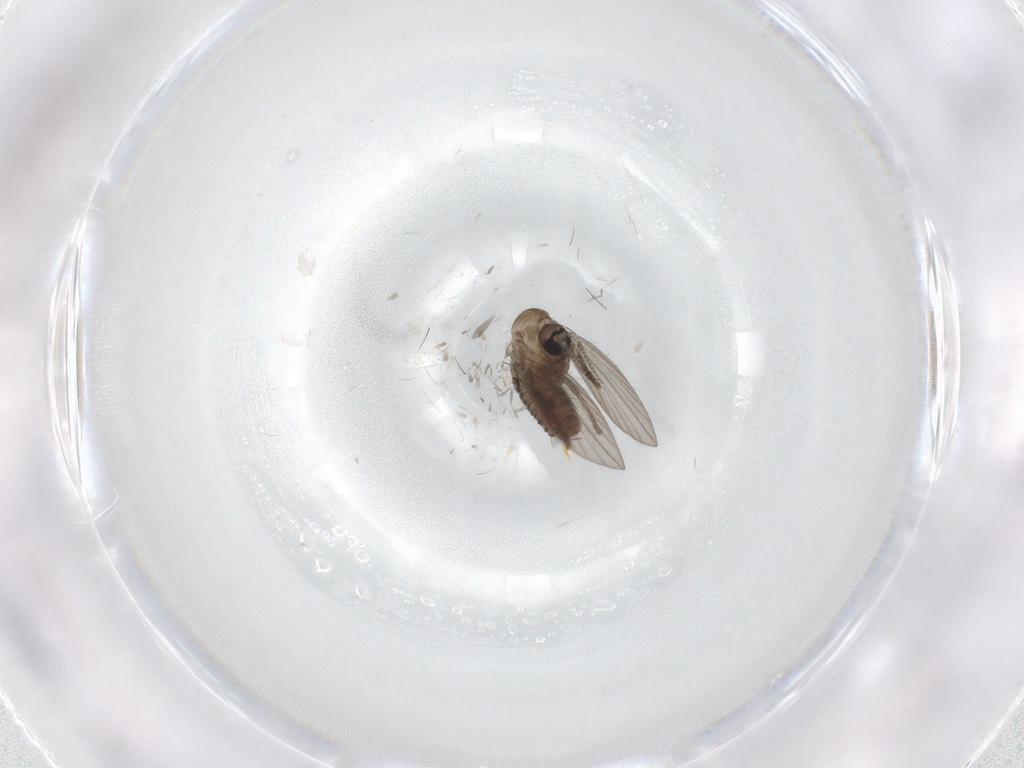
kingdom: Animalia
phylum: Arthropoda
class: Insecta
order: Diptera
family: Psychodidae
